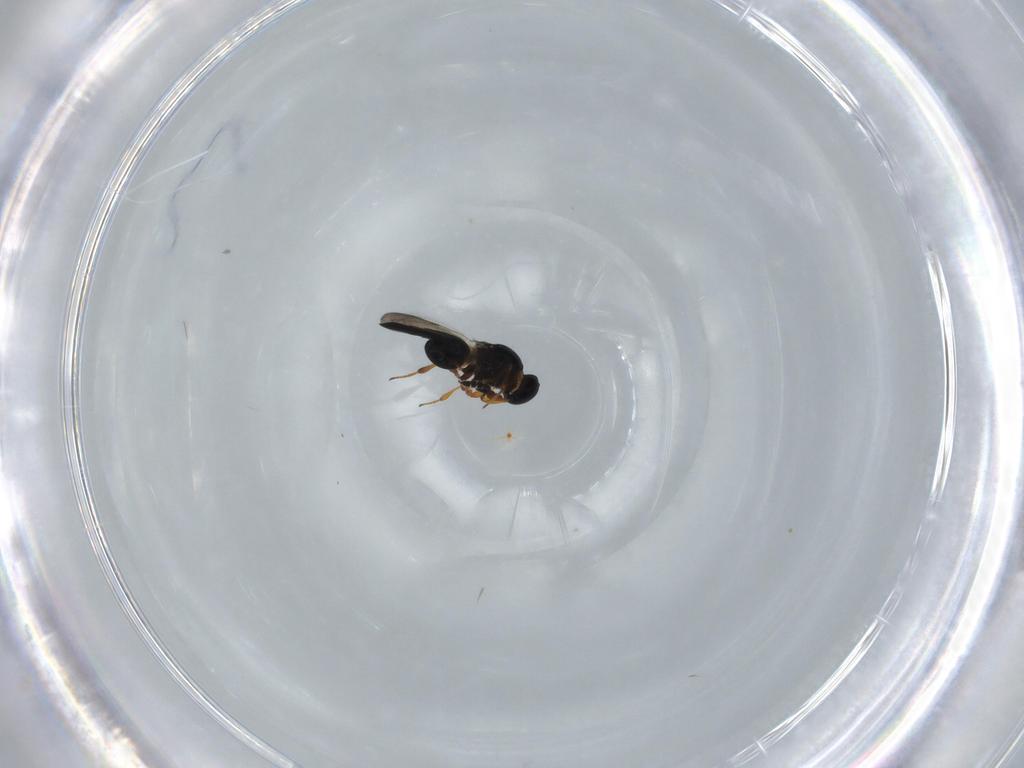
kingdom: Animalia
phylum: Arthropoda
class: Insecta
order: Hymenoptera
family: Platygastridae
